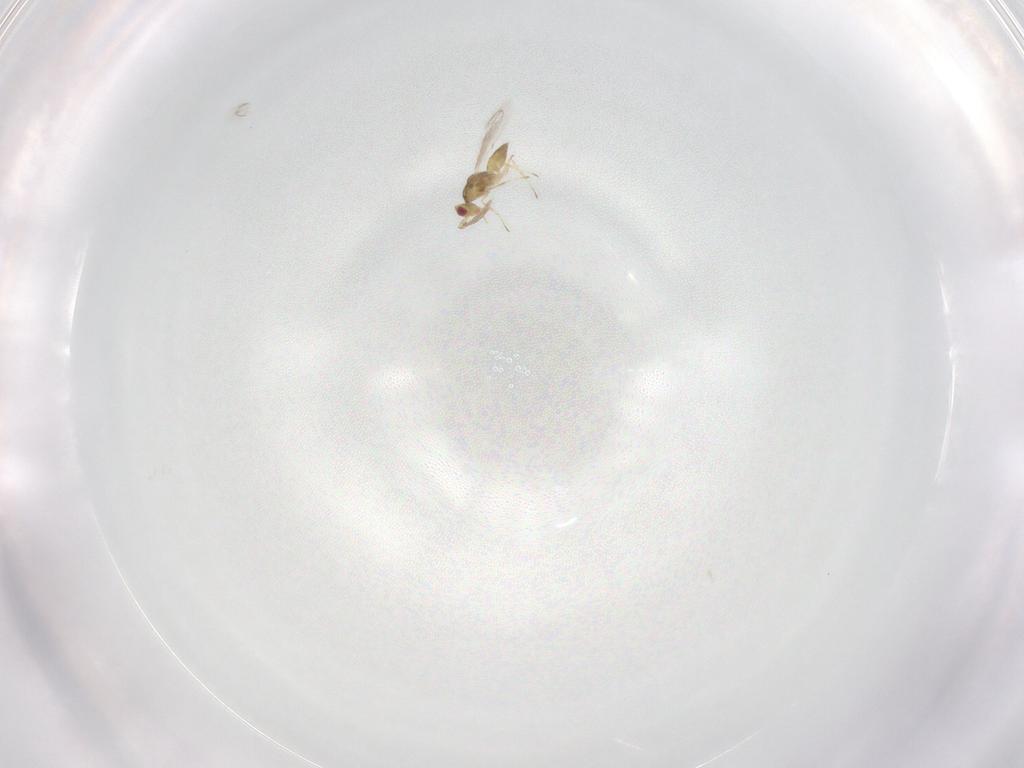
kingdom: Animalia
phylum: Arthropoda
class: Insecta
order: Hymenoptera
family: Eulophidae
